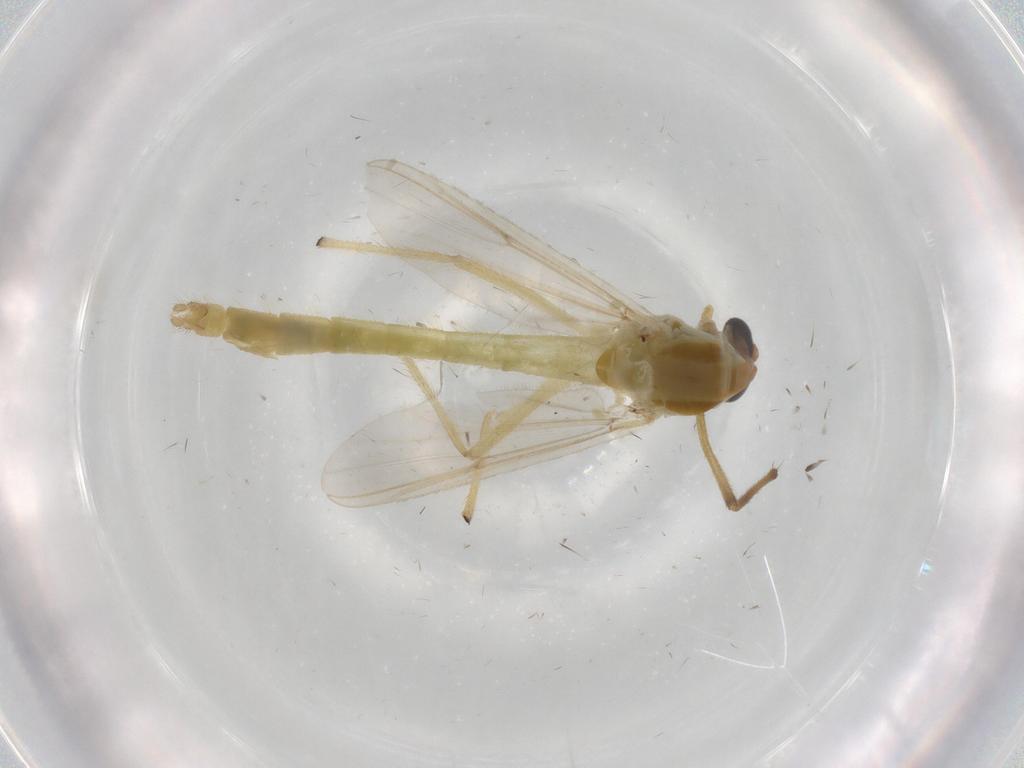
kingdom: Animalia
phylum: Arthropoda
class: Insecta
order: Diptera
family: Chironomidae
